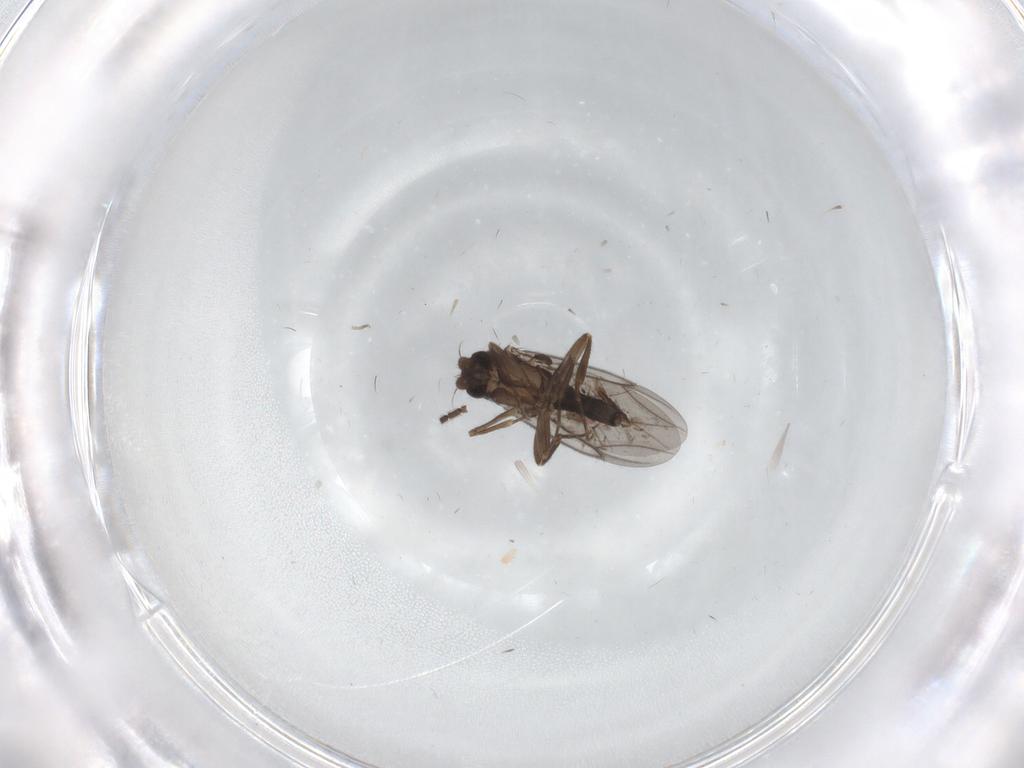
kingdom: Animalia
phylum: Arthropoda
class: Insecta
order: Diptera
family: Sciaridae
